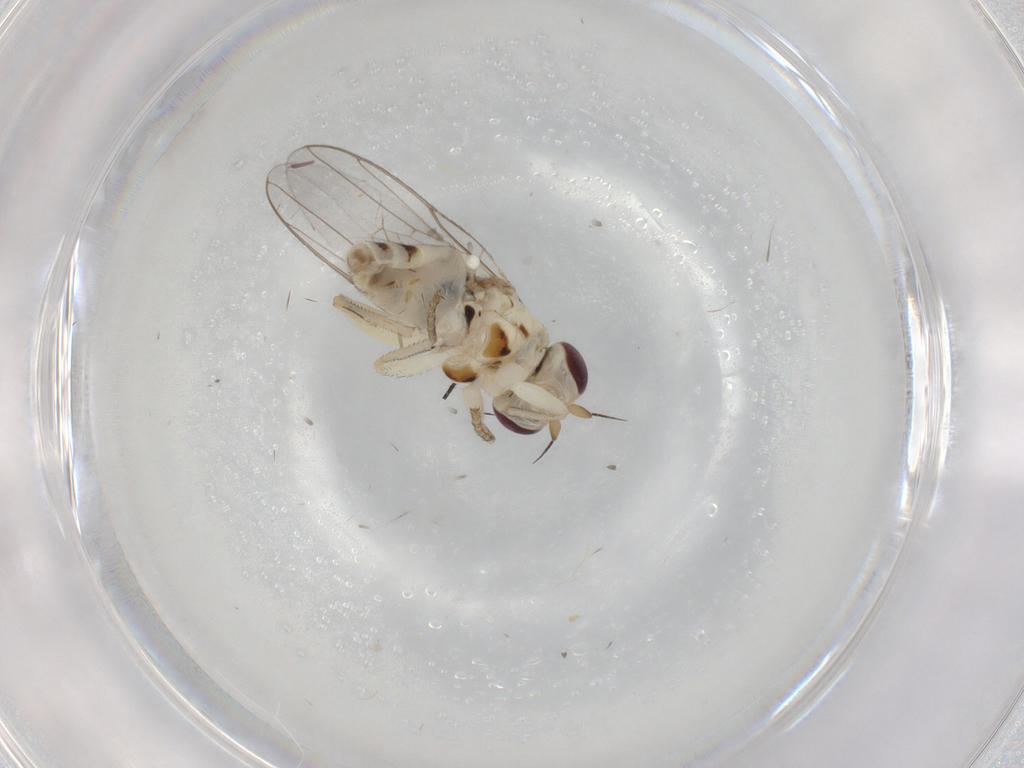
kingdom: Animalia
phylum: Arthropoda
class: Insecta
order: Diptera
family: Chloropidae
